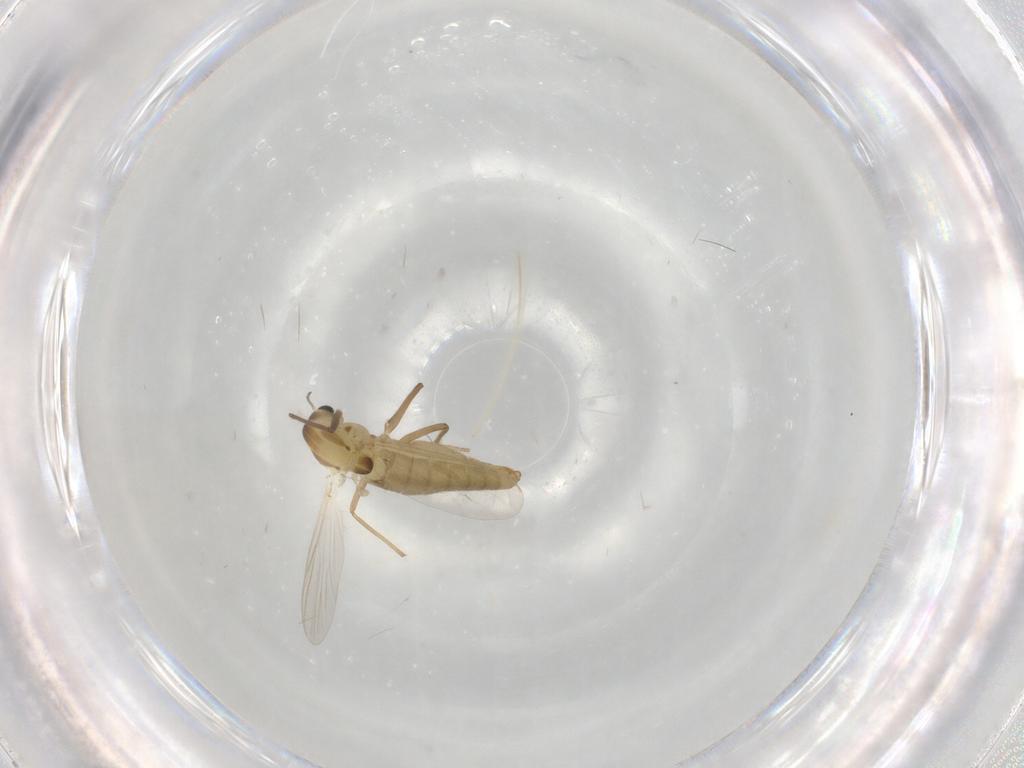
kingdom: Animalia
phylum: Arthropoda
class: Insecta
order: Diptera
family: Chironomidae
